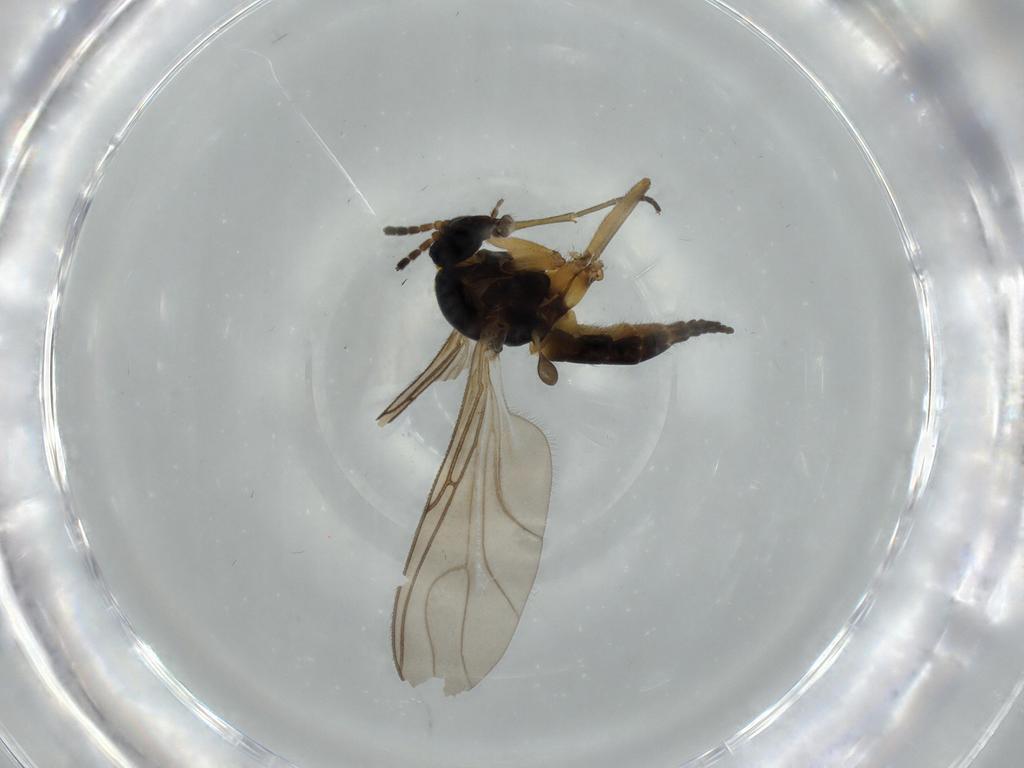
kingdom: Animalia
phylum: Arthropoda
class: Insecta
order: Diptera
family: Sciaridae
